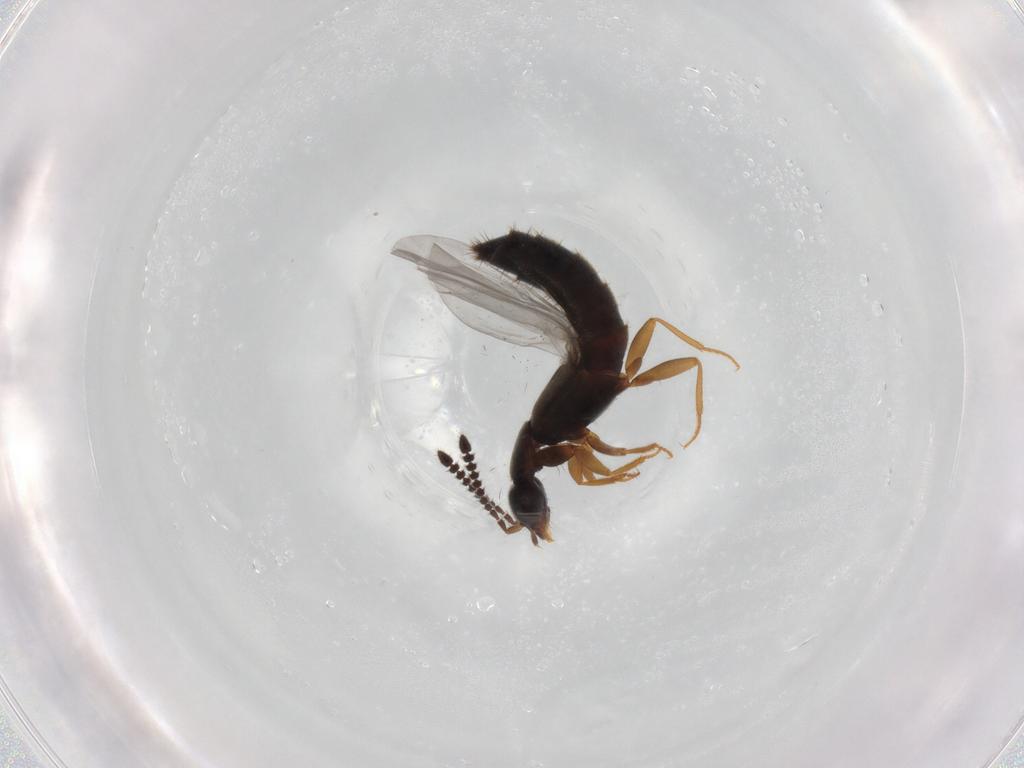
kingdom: Animalia
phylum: Arthropoda
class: Insecta
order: Coleoptera
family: Staphylinidae
